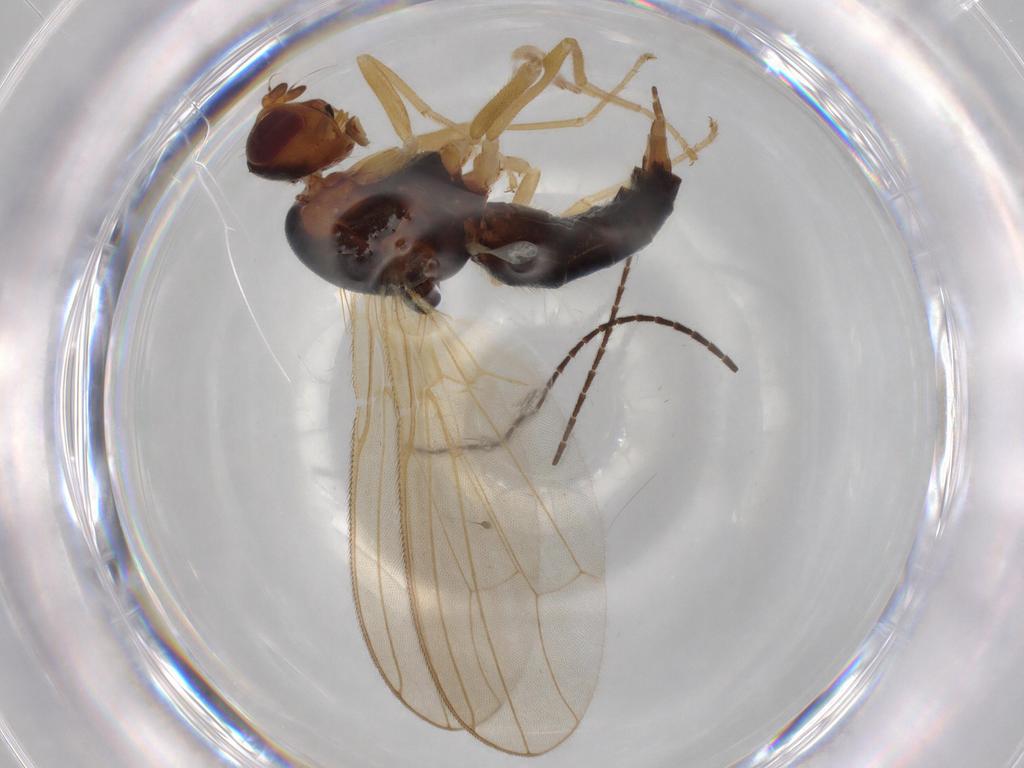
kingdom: Animalia
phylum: Arthropoda
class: Insecta
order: Diptera
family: Hybotidae
